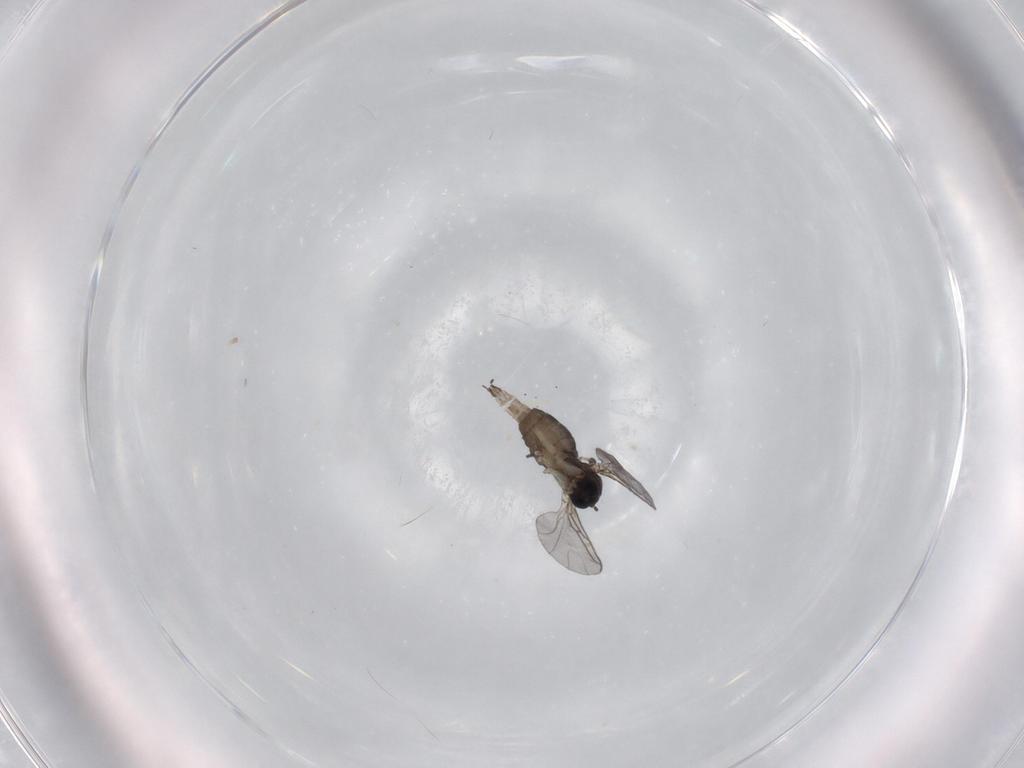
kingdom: Animalia
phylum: Arthropoda
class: Insecta
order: Diptera
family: Sciaridae
